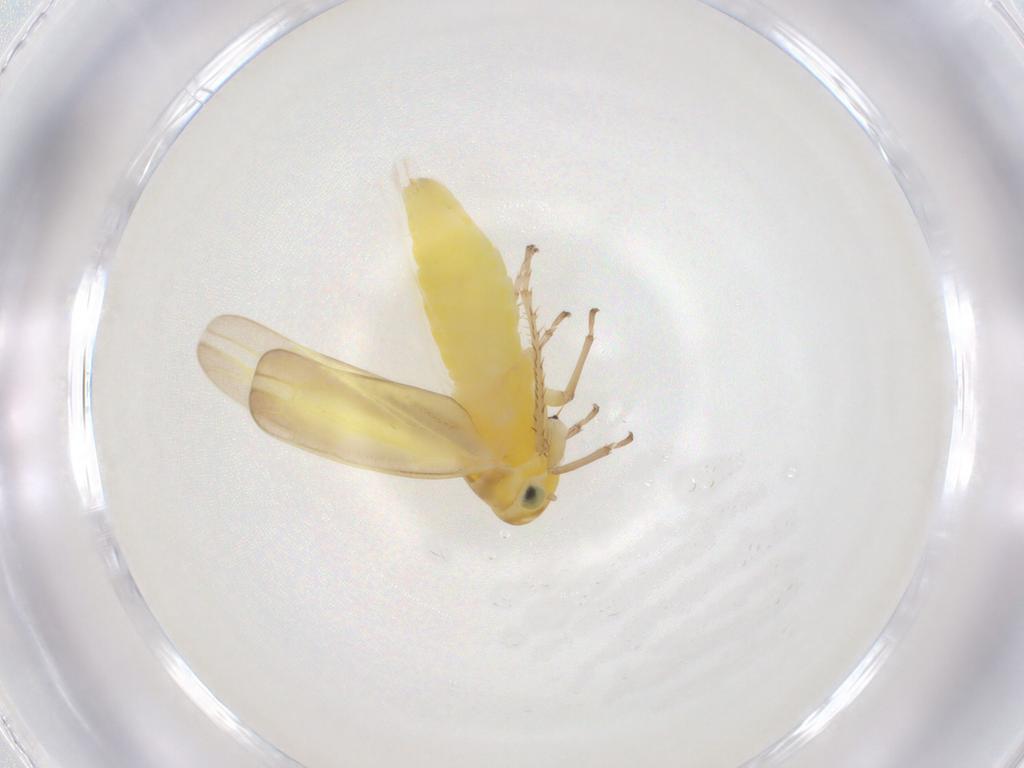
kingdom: Animalia
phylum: Arthropoda
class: Insecta
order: Hemiptera
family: Cicadellidae
